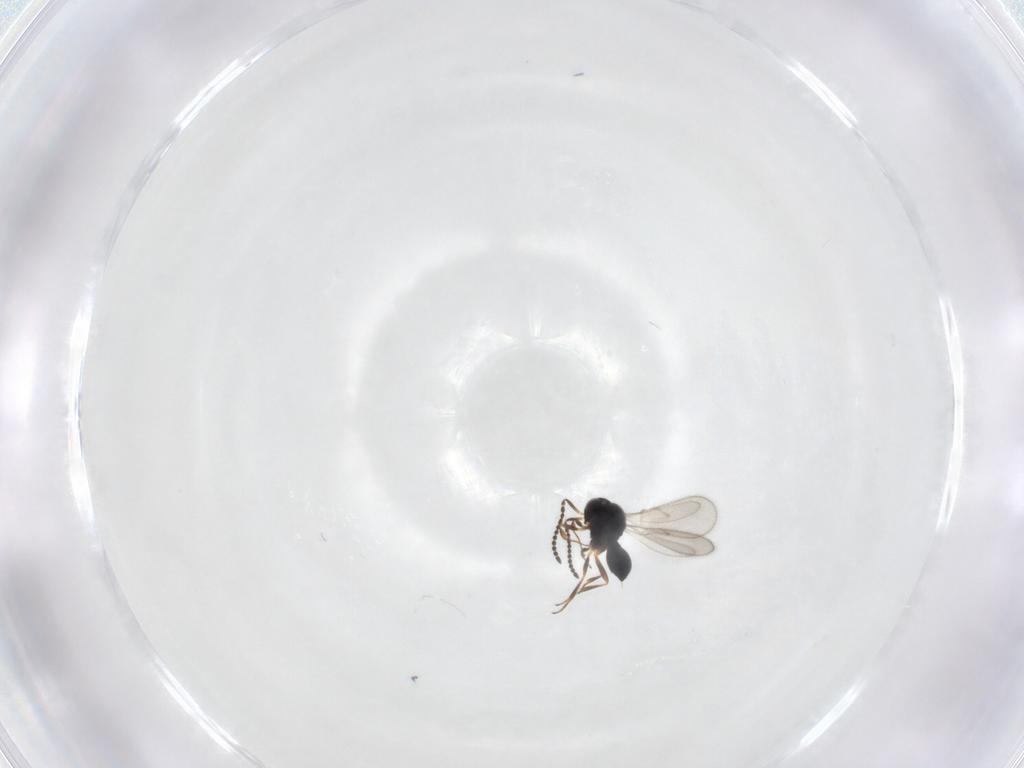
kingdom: Animalia
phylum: Arthropoda
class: Insecta
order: Hymenoptera
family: Scelionidae
